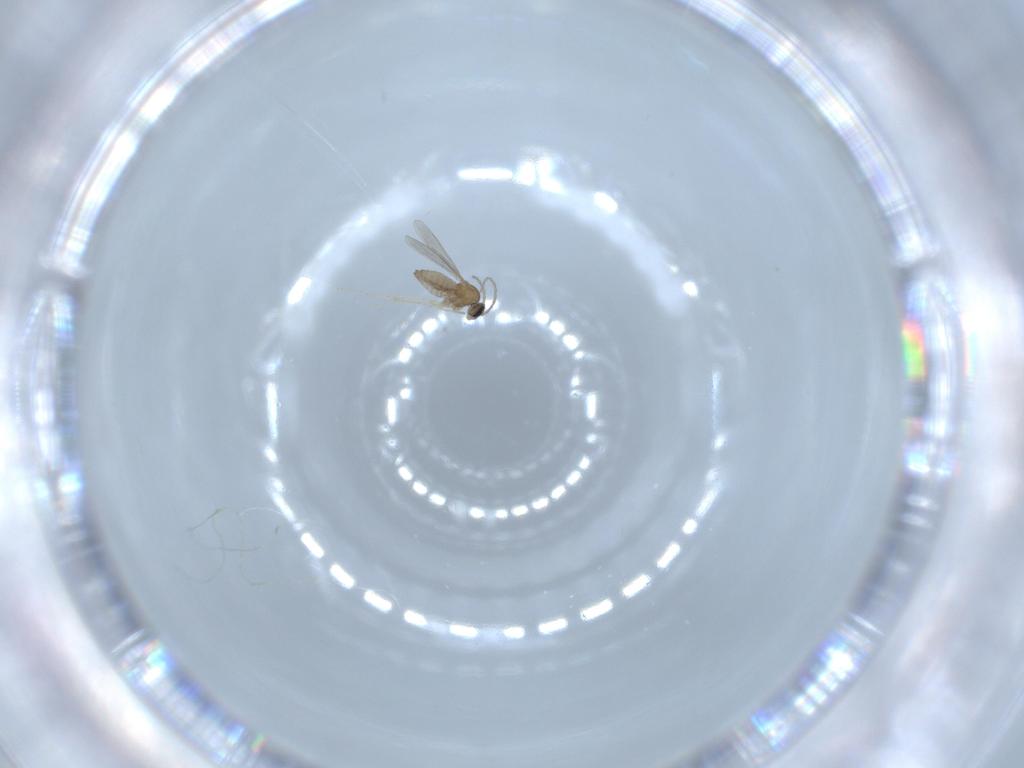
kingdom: Animalia
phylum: Arthropoda
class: Insecta
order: Diptera
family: Cecidomyiidae
